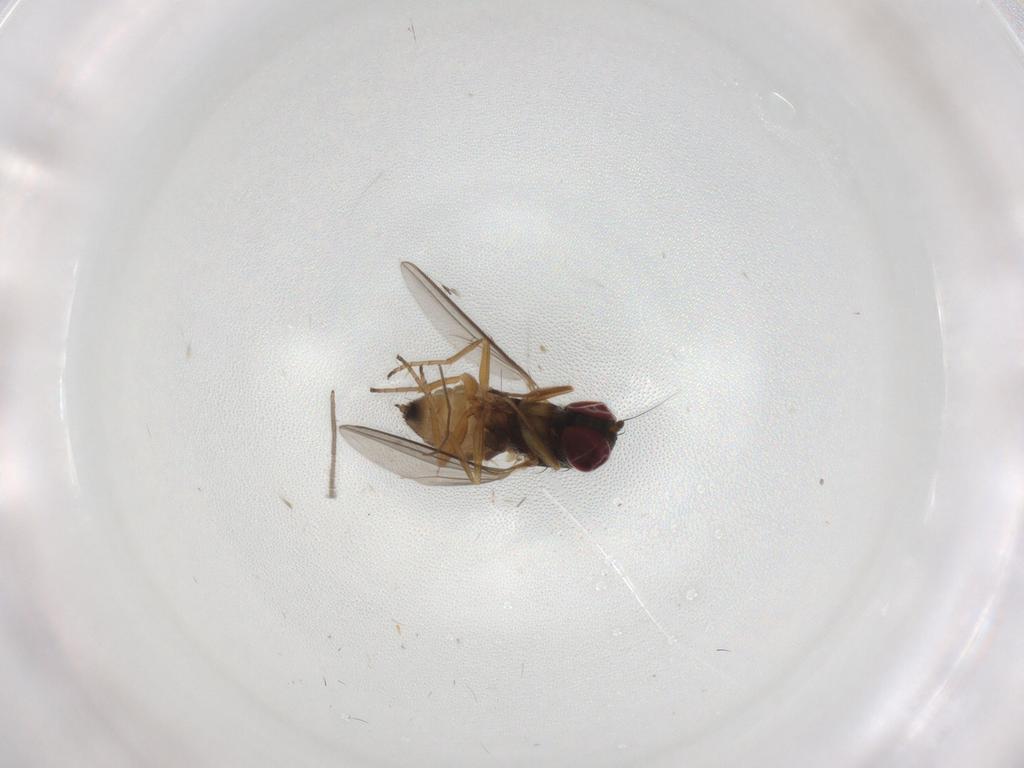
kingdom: Animalia
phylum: Arthropoda
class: Insecta
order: Diptera
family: Dolichopodidae
